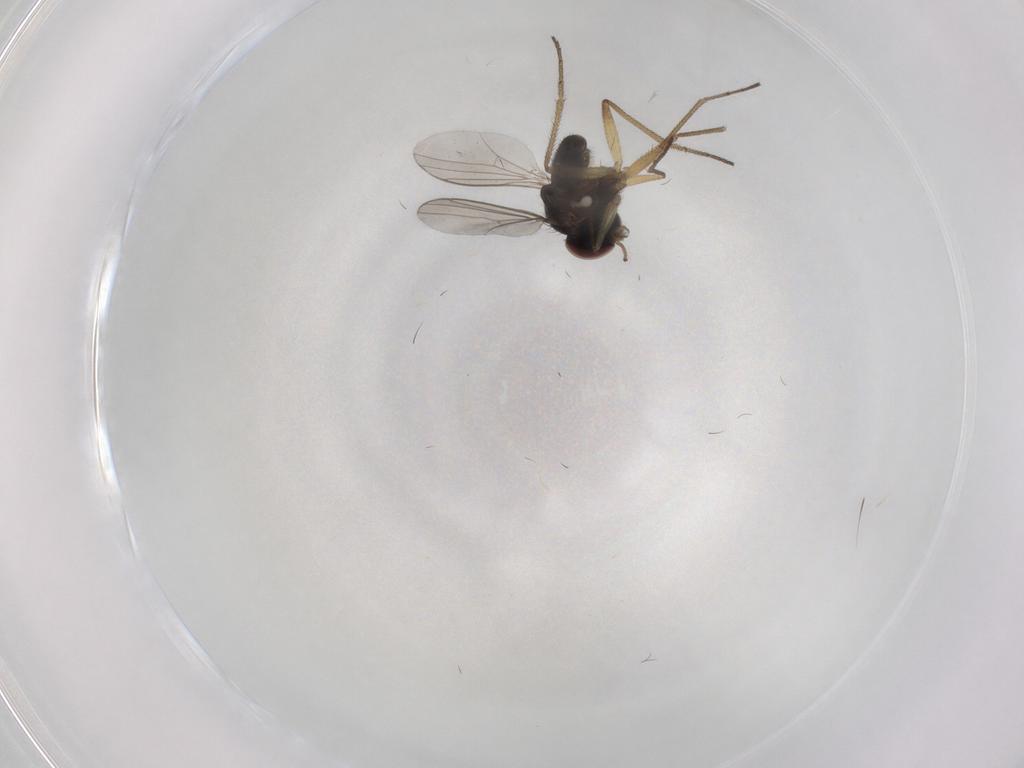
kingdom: Animalia
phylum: Arthropoda
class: Insecta
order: Diptera
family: Dolichopodidae
